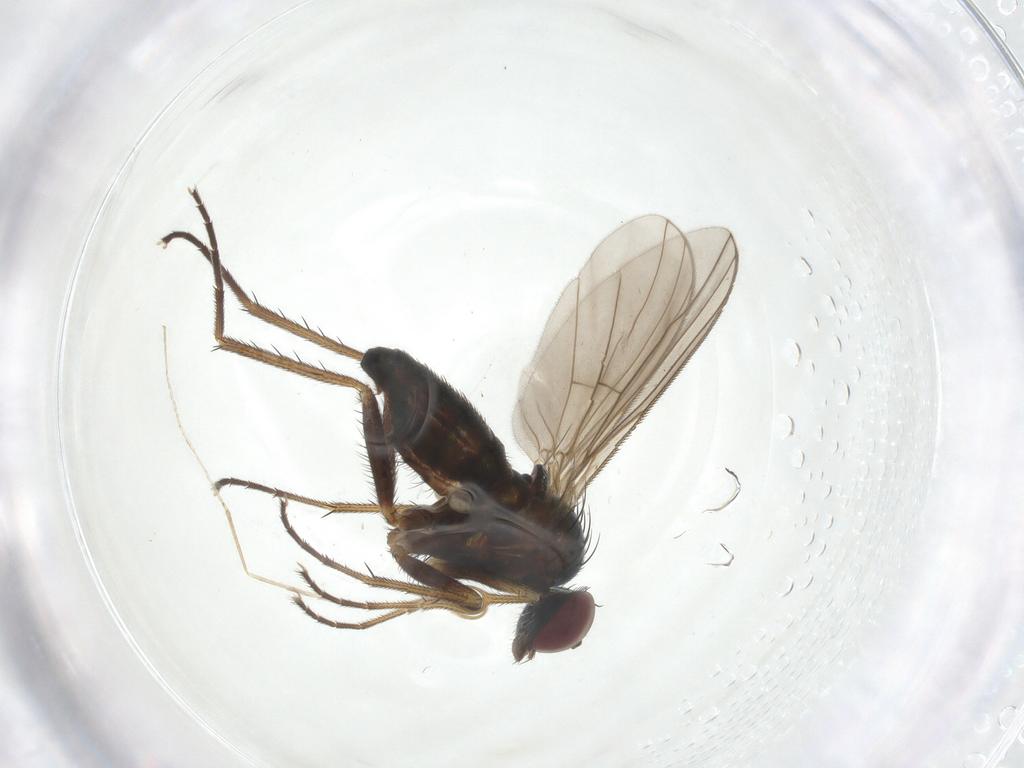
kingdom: Animalia
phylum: Arthropoda
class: Insecta
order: Diptera
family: Dolichopodidae
